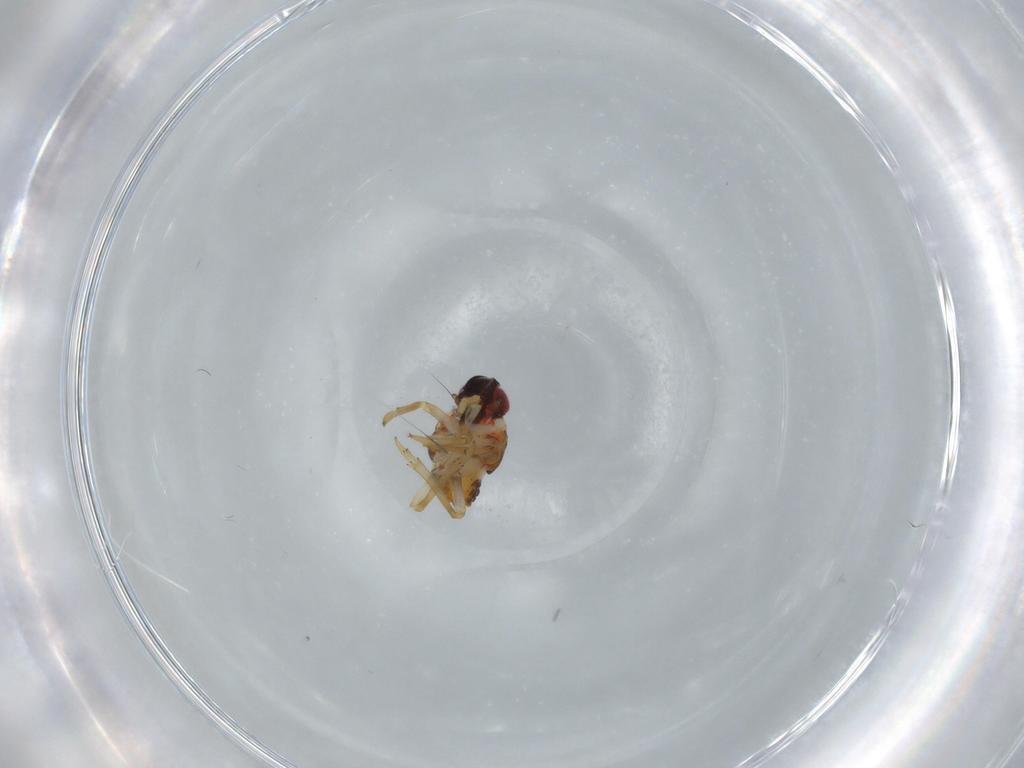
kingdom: Animalia
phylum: Arthropoda
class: Insecta
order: Hemiptera
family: Issidae
